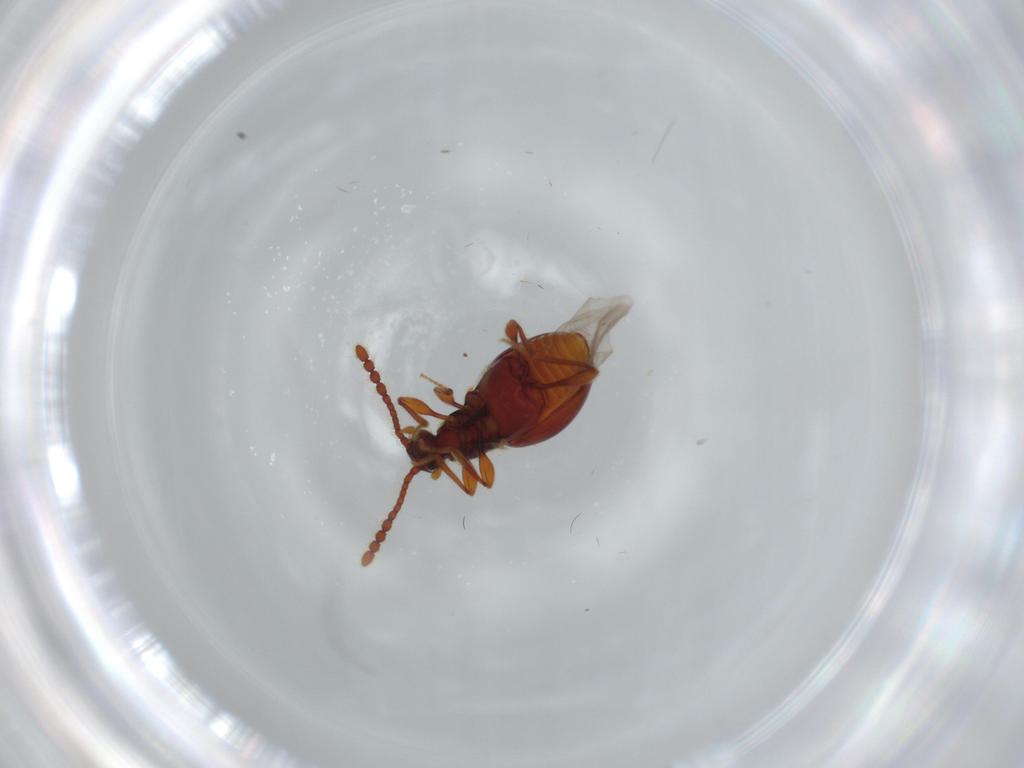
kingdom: Animalia
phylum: Arthropoda
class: Insecta
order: Coleoptera
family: Staphylinidae
